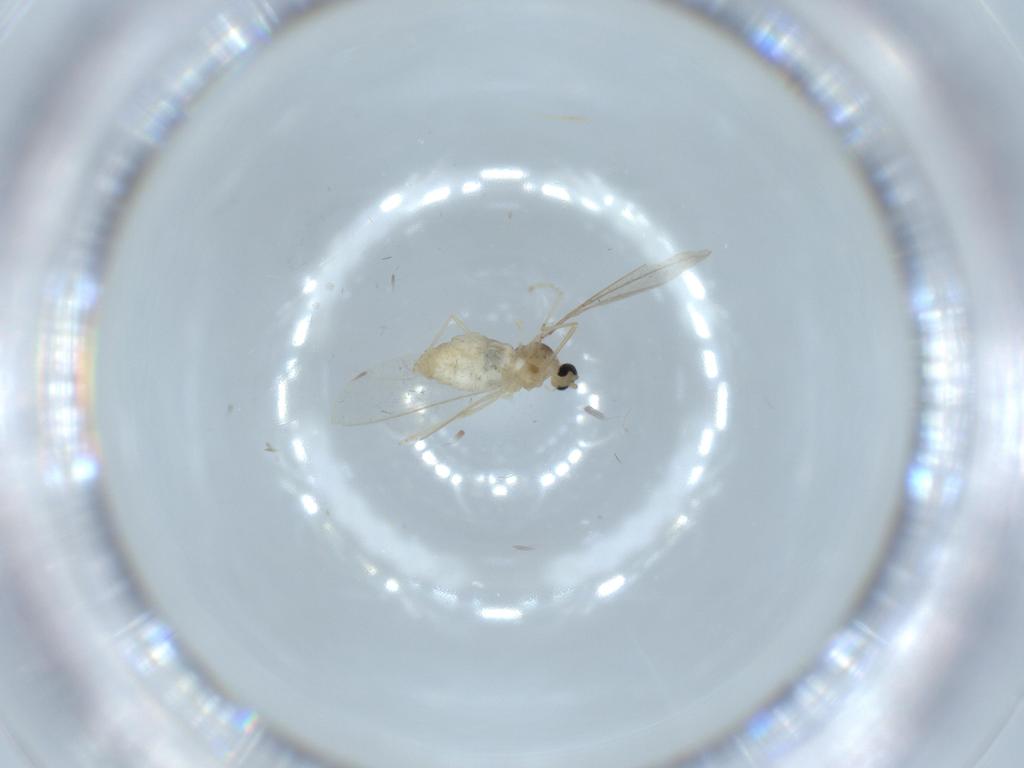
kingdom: Animalia
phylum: Arthropoda
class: Insecta
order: Diptera
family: Cecidomyiidae
